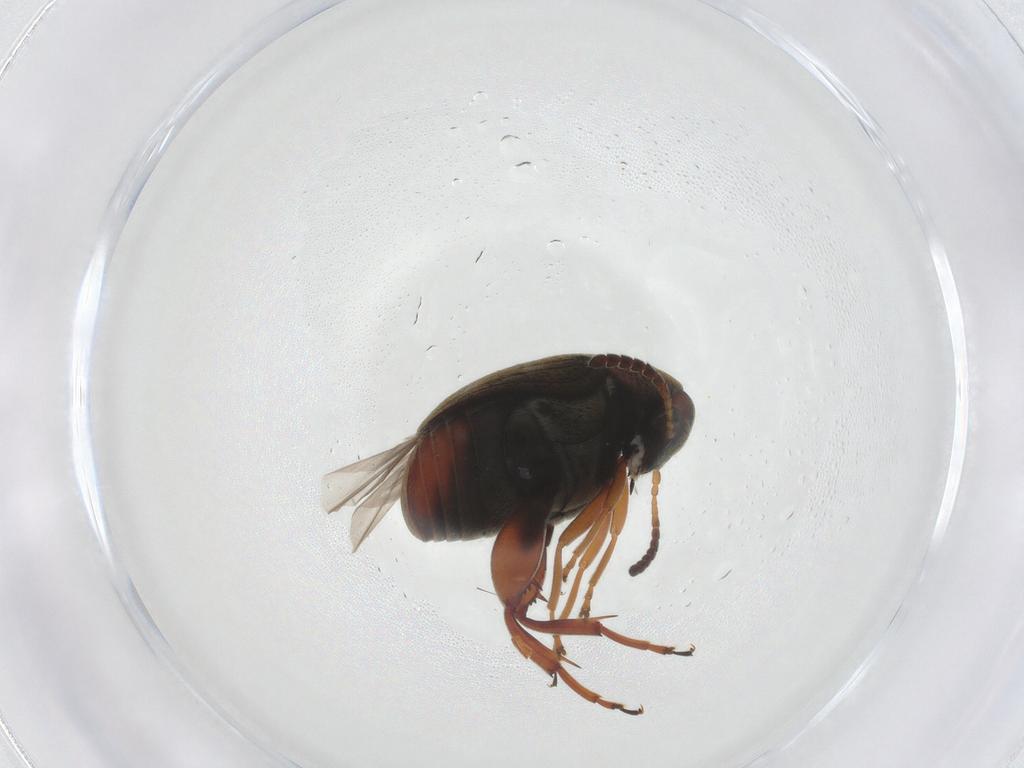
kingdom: Animalia
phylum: Arthropoda
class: Insecta
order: Coleoptera
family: Chrysomelidae
